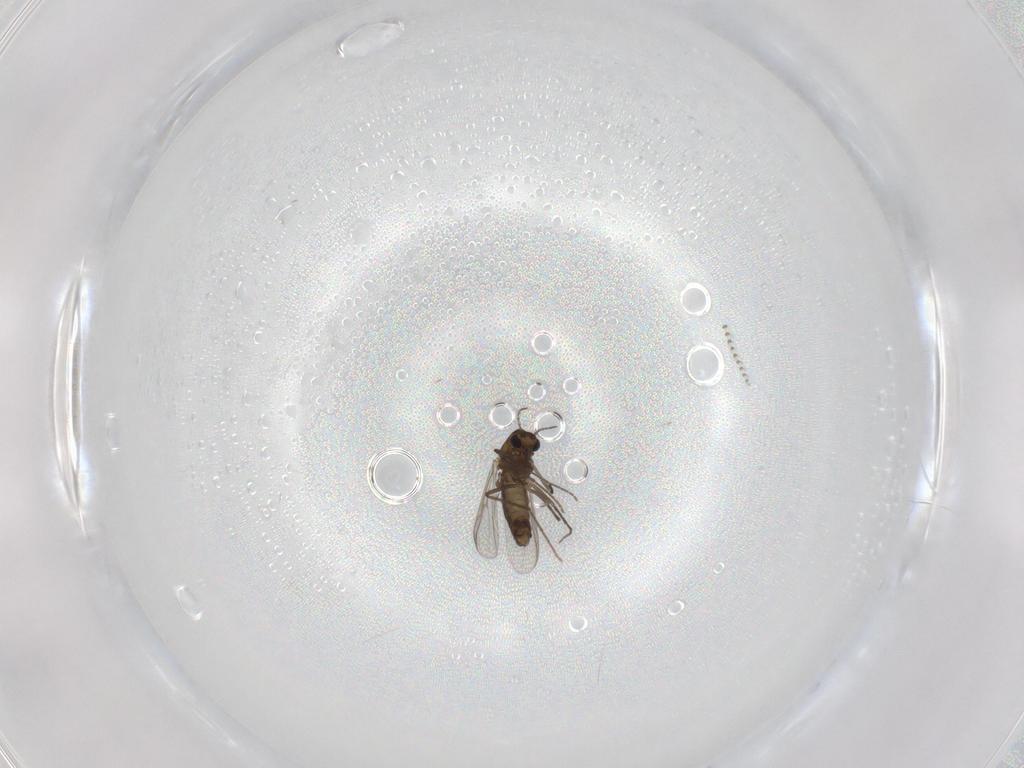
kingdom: Animalia
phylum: Arthropoda
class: Insecta
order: Diptera
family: Chironomidae
